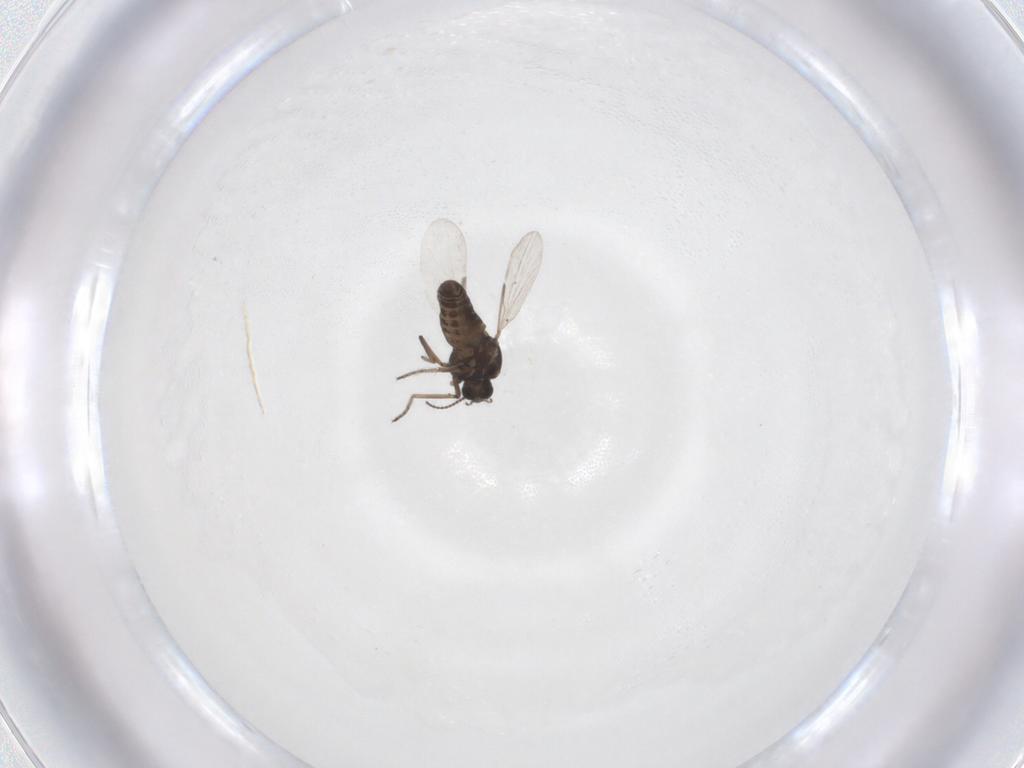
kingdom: Animalia
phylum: Arthropoda
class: Insecta
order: Diptera
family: Ceratopogonidae
